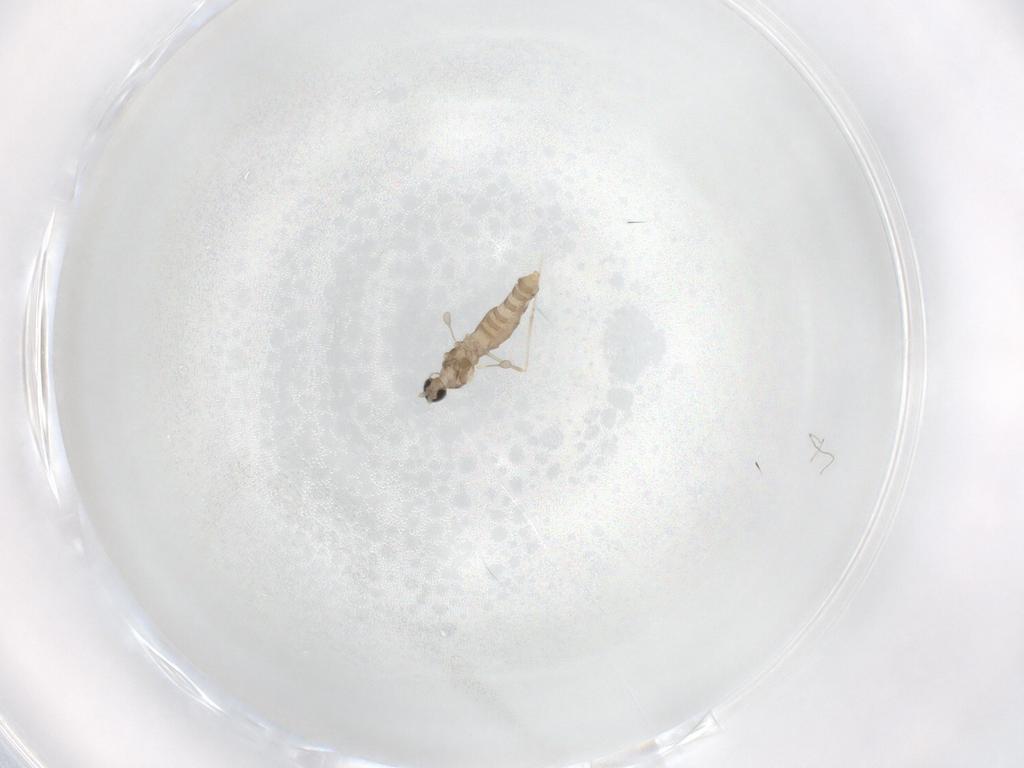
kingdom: Animalia
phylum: Arthropoda
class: Insecta
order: Diptera
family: Cecidomyiidae
